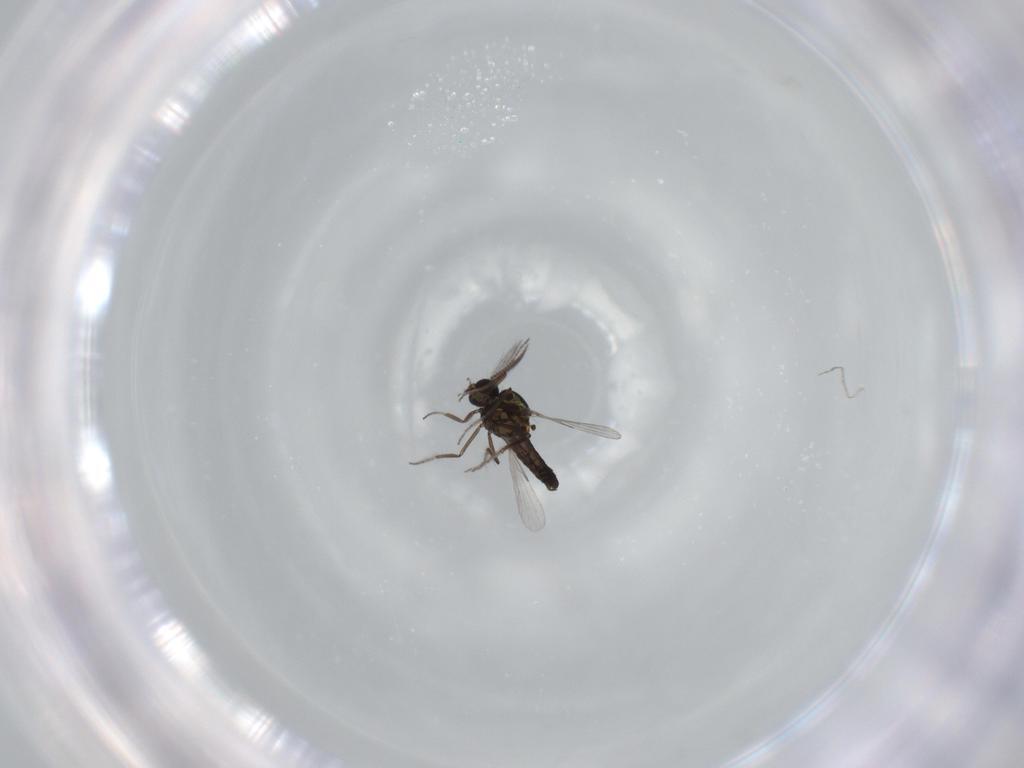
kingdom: Animalia
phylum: Arthropoda
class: Insecta
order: Diptera
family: Ceratopogonidae
